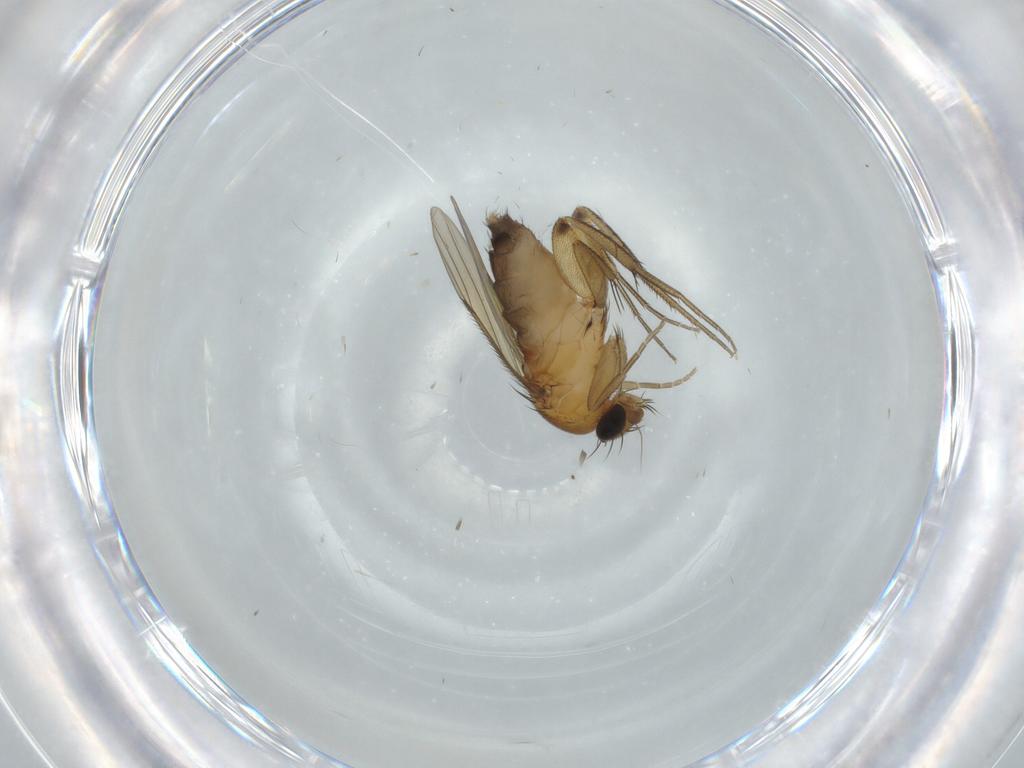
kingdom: Animalia
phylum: Arthropoda
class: Insecta
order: Diptera
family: Phoridae
